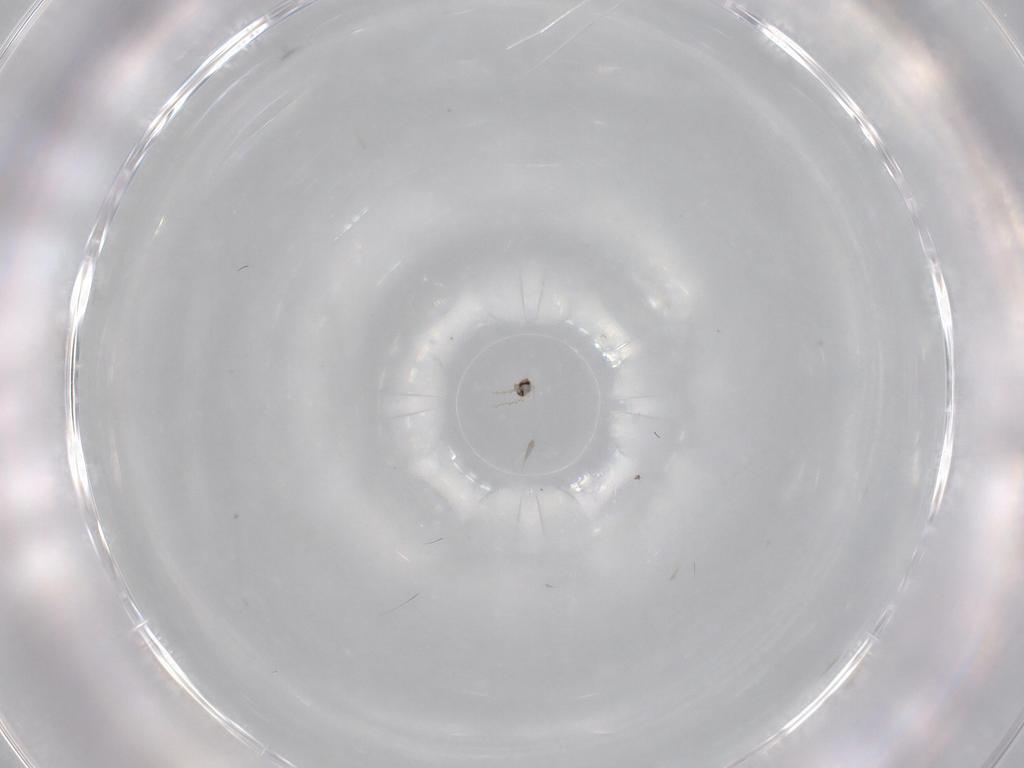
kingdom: Animalia
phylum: Arthropoda
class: Insecta
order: Diptera
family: Cecidomyiidae
